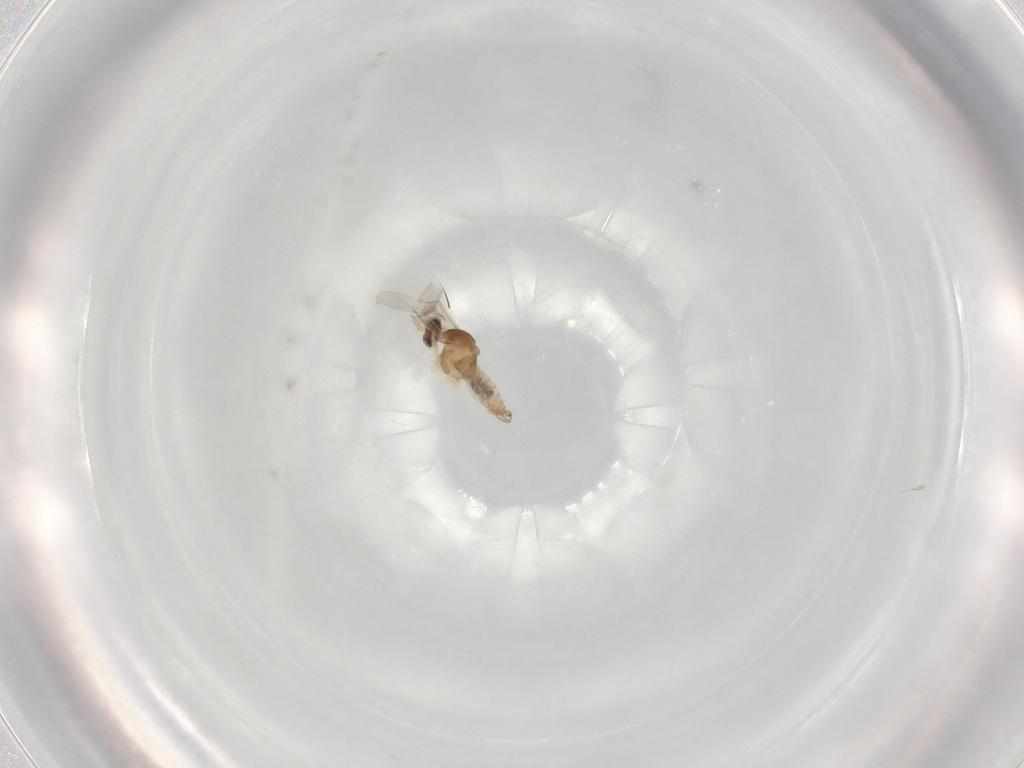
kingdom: Animalia
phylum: Arthropoda
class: Insecta
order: Diptera
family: Cecidomyiidae
